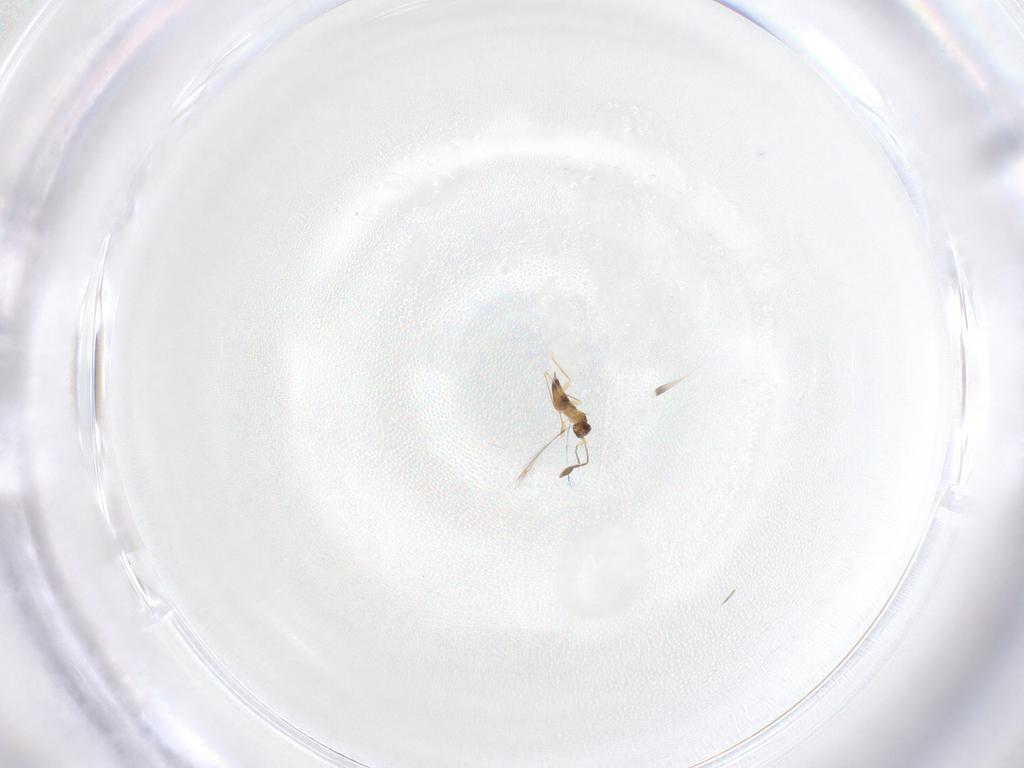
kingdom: Animalia
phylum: Arthropoda
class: Insecta
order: Hymenoptera
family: Mymaridae
